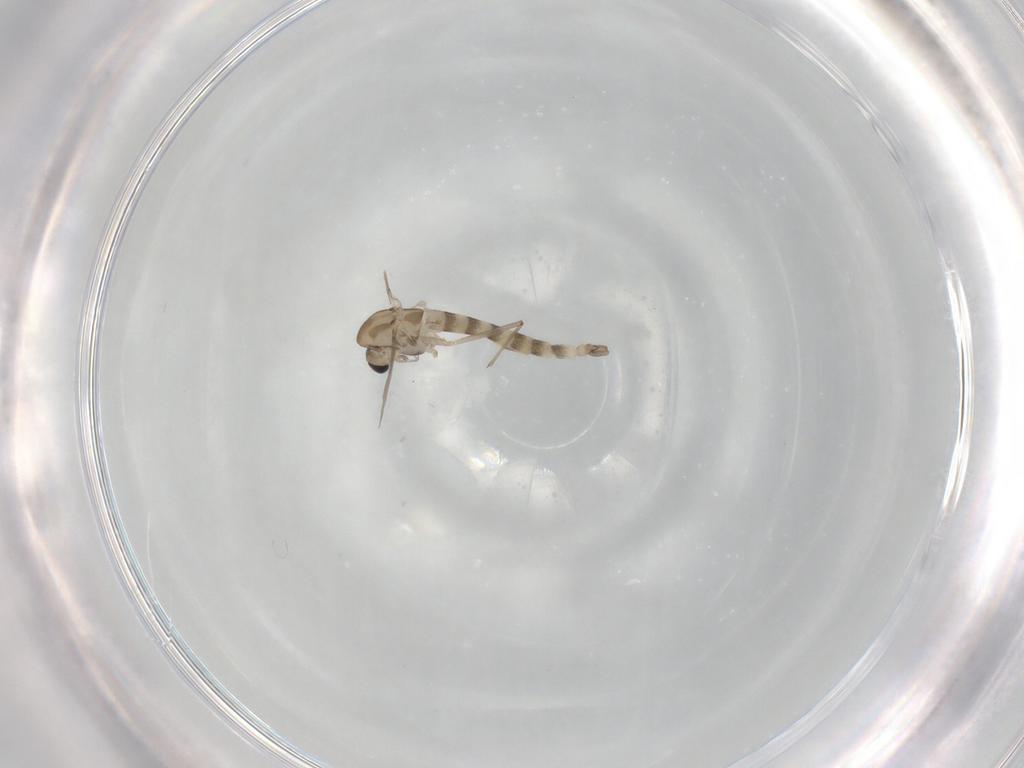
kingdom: Animalia
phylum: Arthropoda
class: Insecta
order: Diptera
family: Chironomidae
